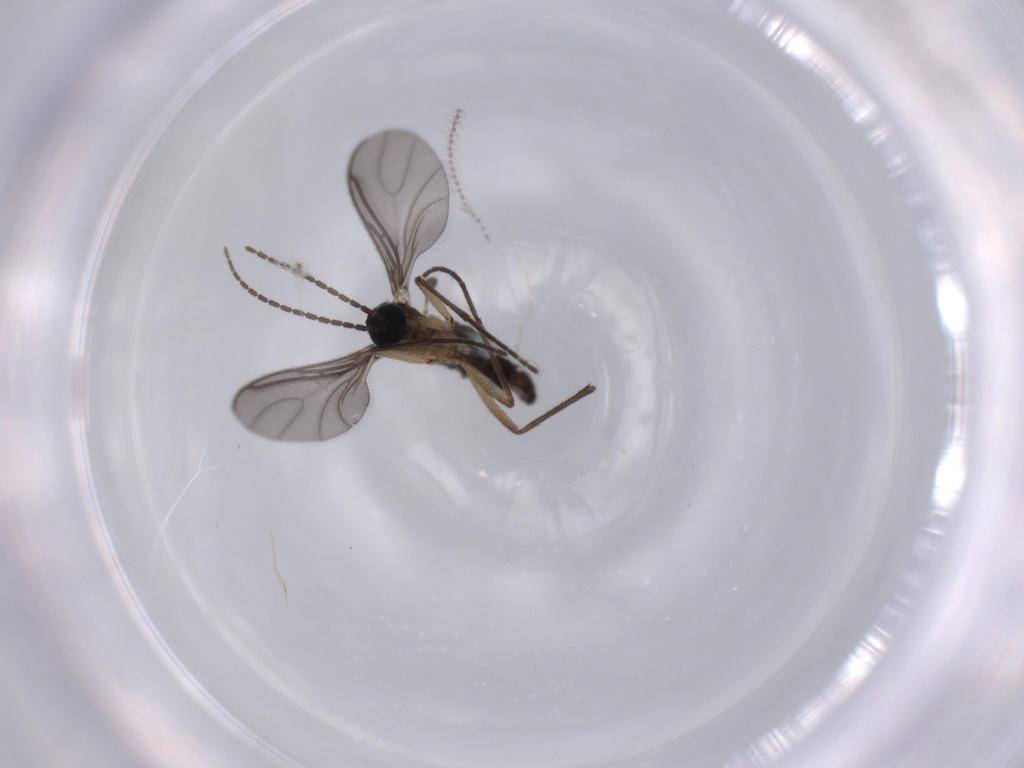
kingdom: Animalia
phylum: Arthropoda
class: Insecta
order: Diptera
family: Sciaridae
